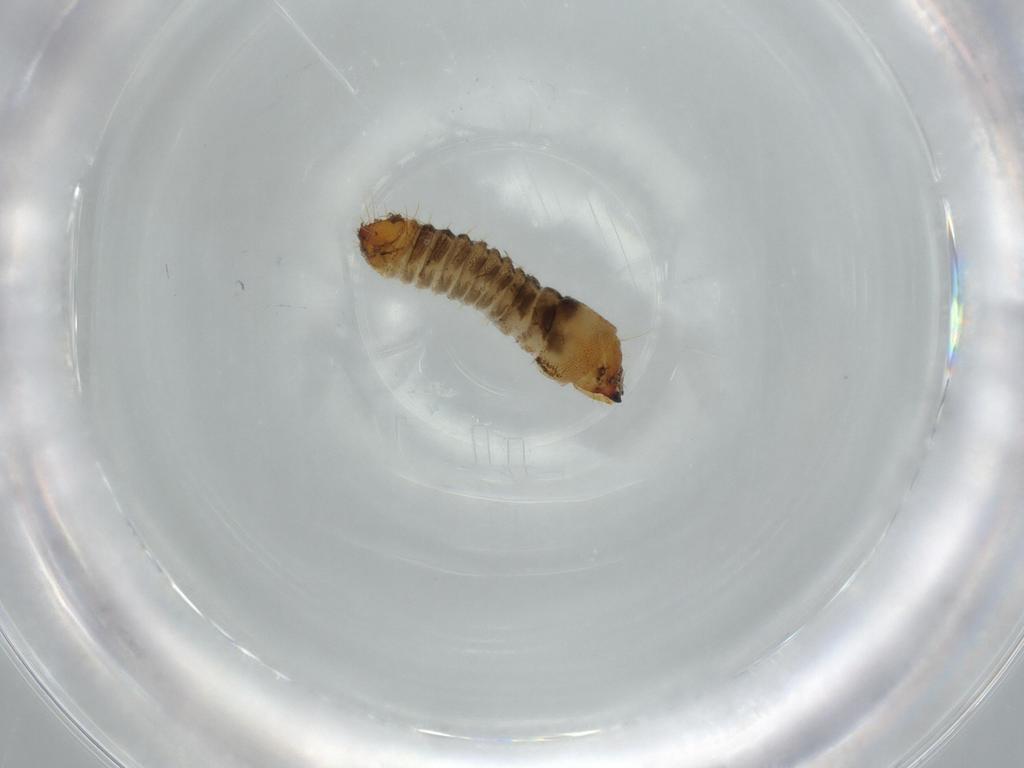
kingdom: Animalia
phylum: Arthropoda
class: Insecta
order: Coleoptera
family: Lymexylidae
